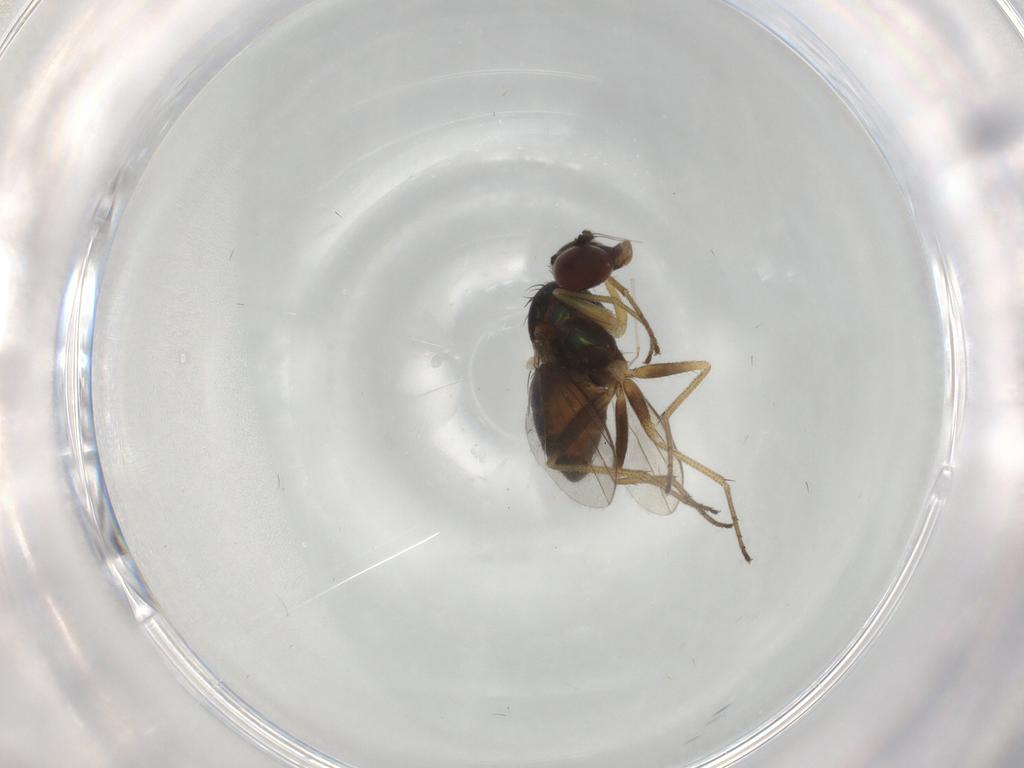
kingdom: Animalia
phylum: Arthropoda
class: Insecta
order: Diptera
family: Dolichopodidae
